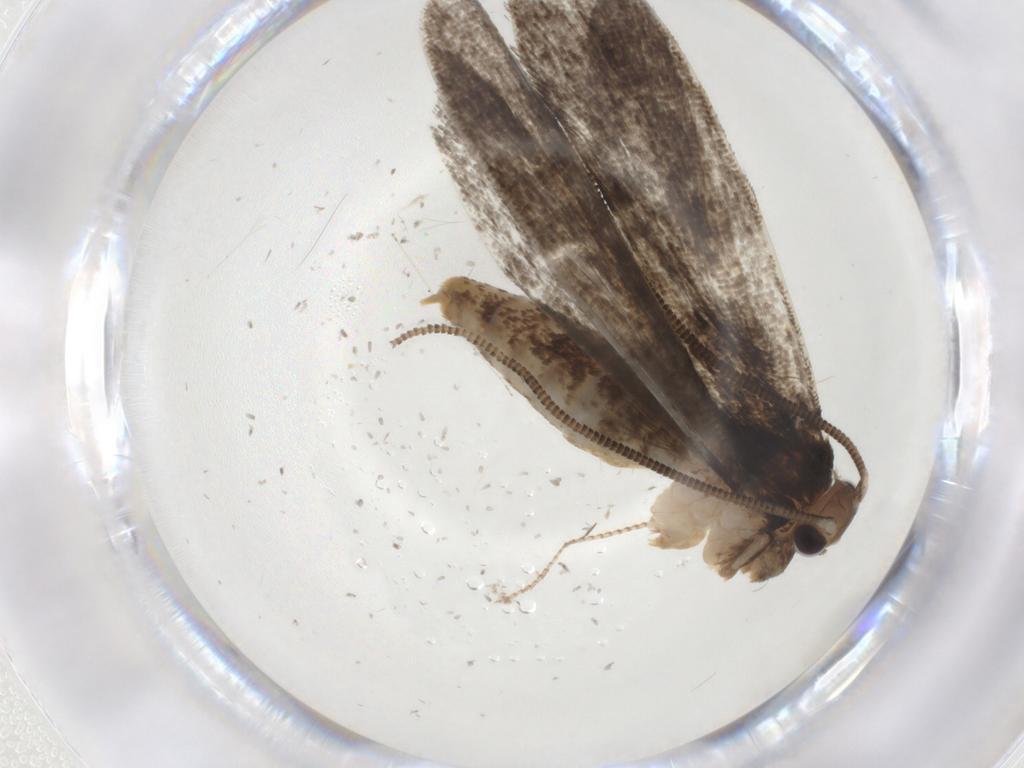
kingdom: Animalia
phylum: Arthropoda
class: Insecta
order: Lepidoptera
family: Tineidae
